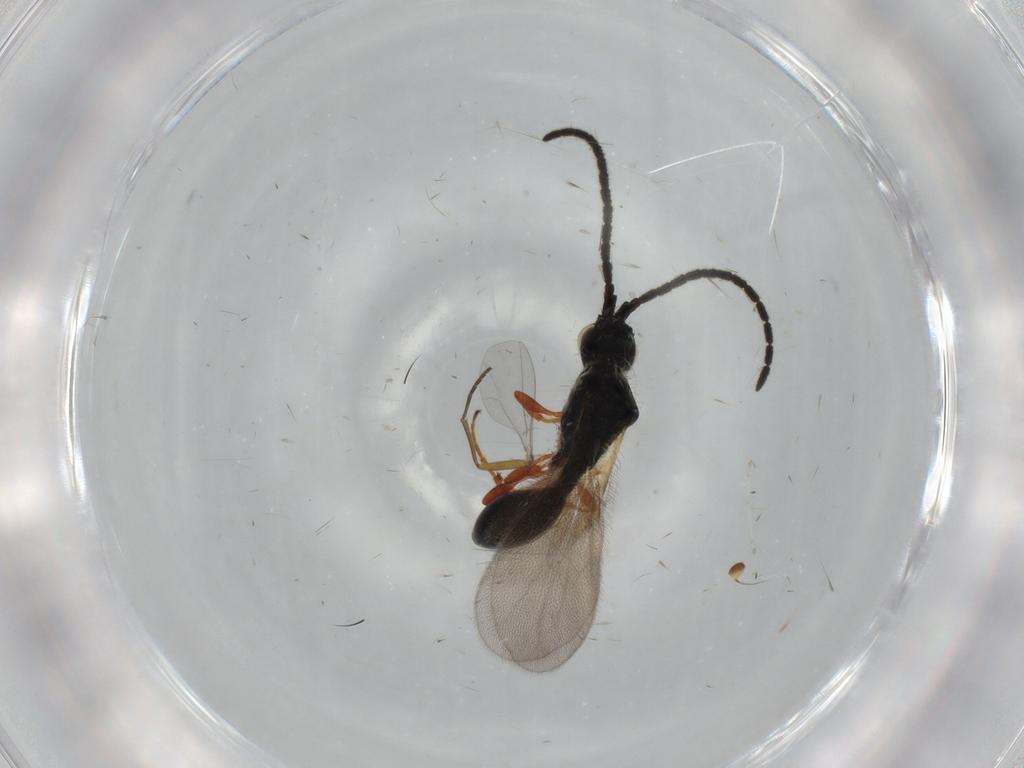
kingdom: Animalia
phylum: Arthropoda
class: Insecta
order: Hymenoptera
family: Diapriidae
